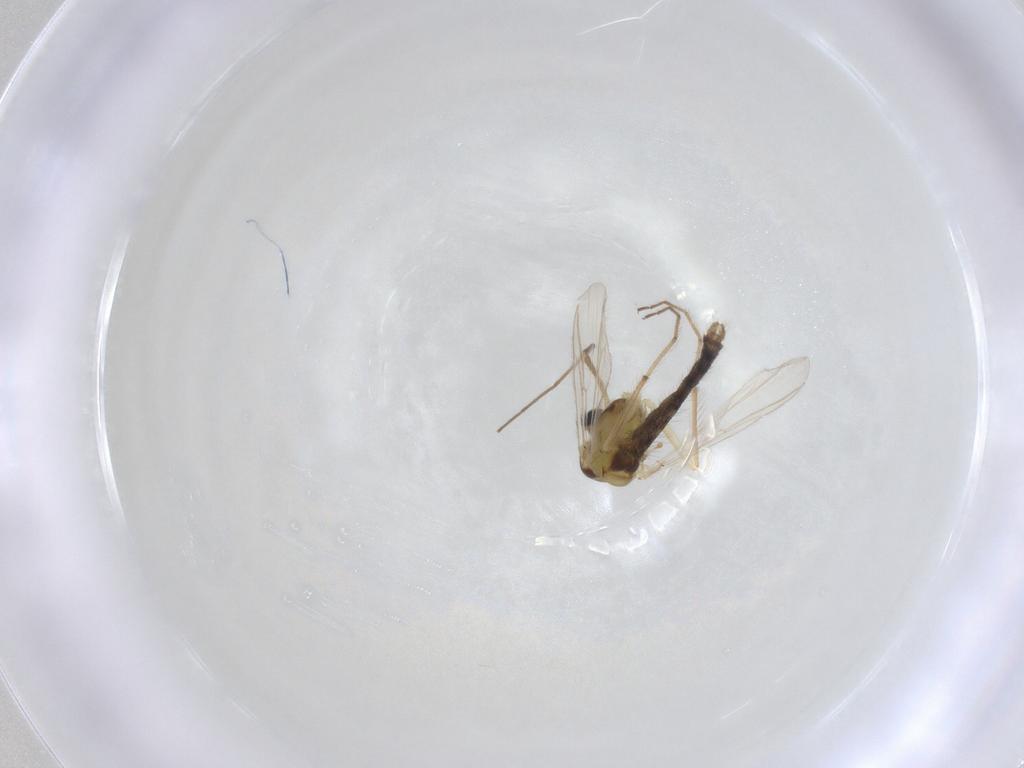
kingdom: Animalia
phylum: Arthropoda
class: Insecta
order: Diptera
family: Chironomidae
